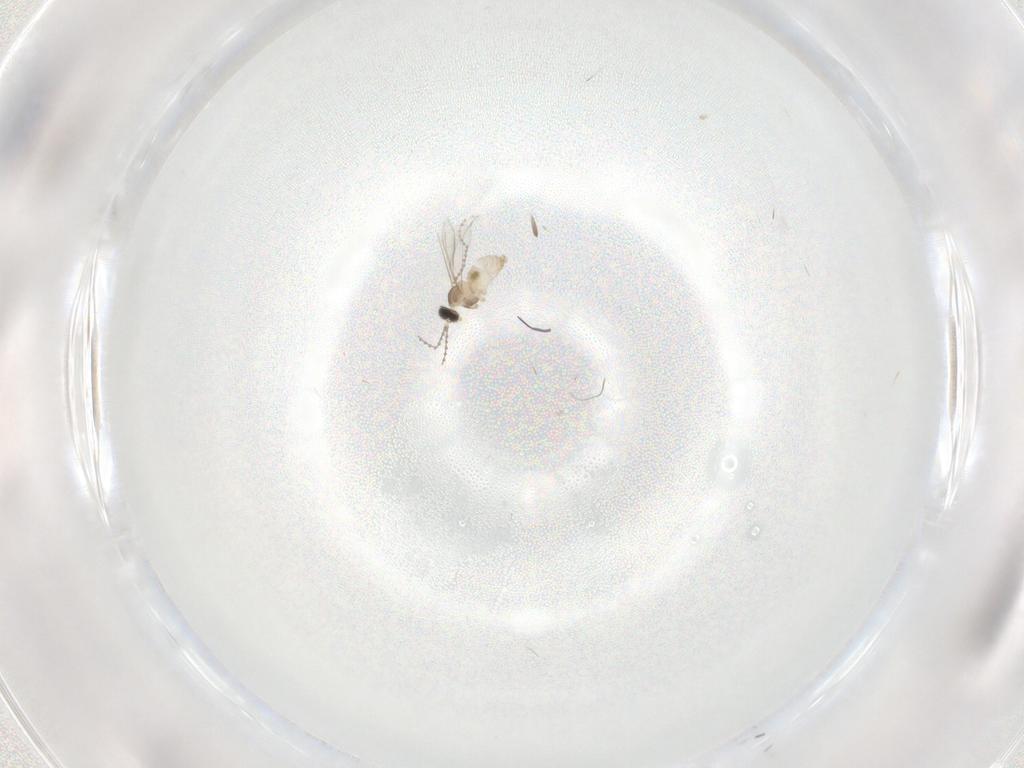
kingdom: Animalia
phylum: Arthropoda
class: Insecta
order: Diptera
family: Cecidomyiidae
